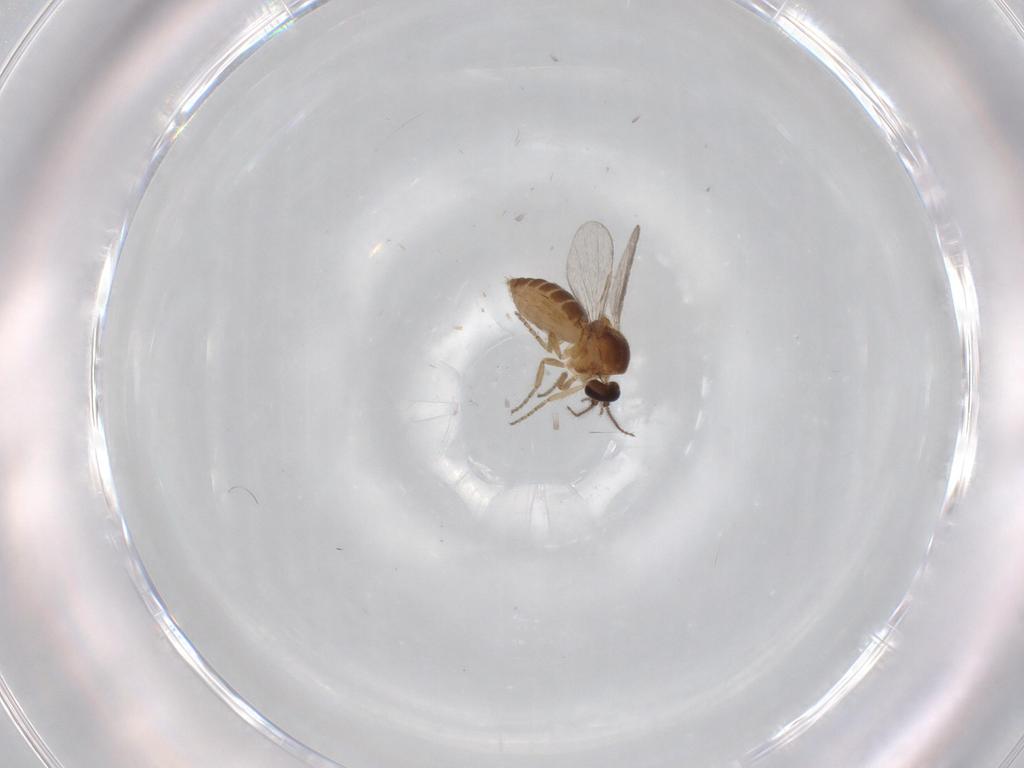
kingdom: Animalia
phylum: Arthropoda
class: Insecta
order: Diptera
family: Ceratopogonidae
